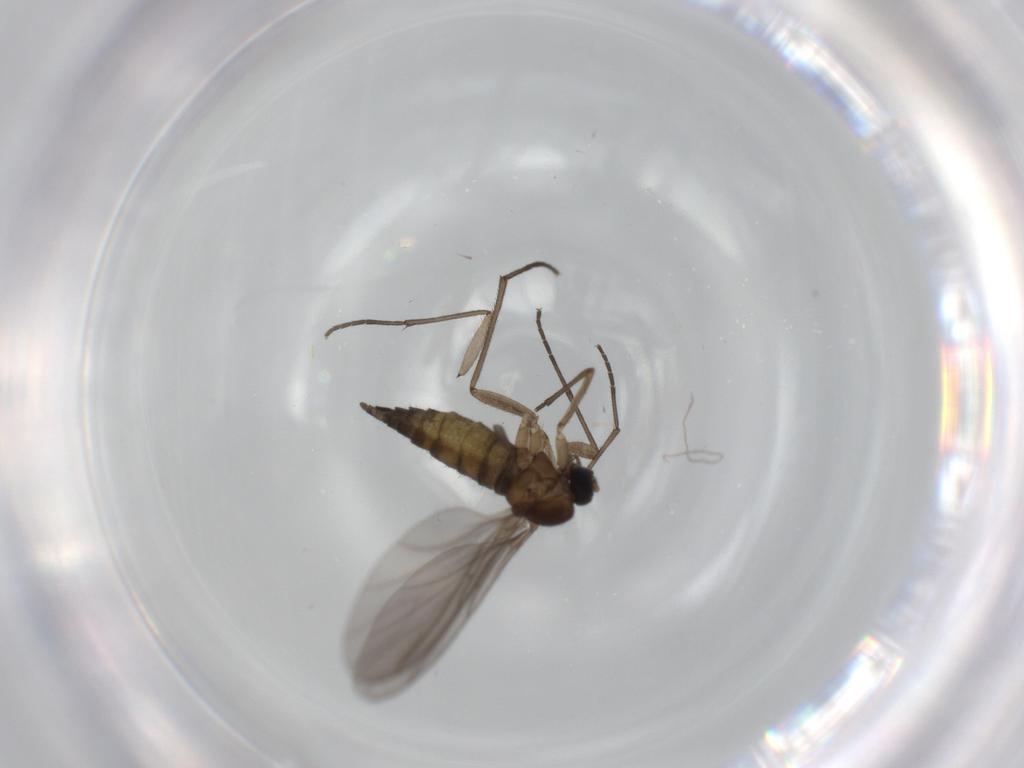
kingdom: Animalia
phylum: Arthropoda
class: Insecta
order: Diptera
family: Sciaridae
